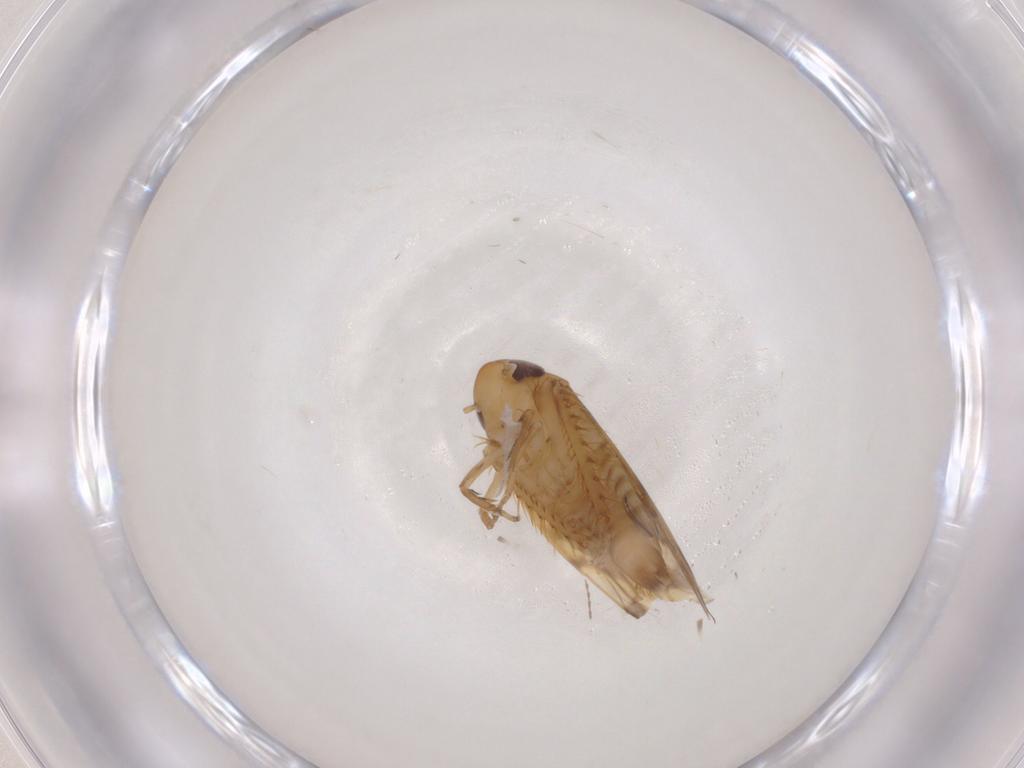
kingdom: Animalia
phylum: Arthropoda
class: Insecta
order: Hemiptera
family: Cicadellidae
